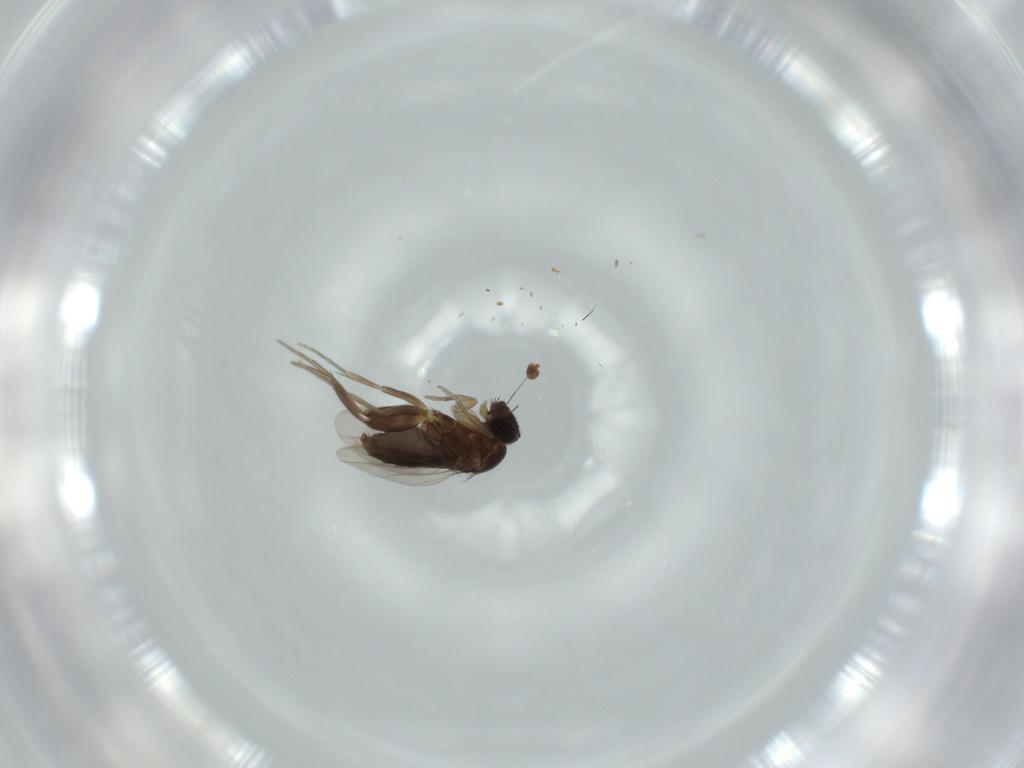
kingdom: Animalia
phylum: Arthropoda
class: Insecta
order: Diptera
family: Phoridae
